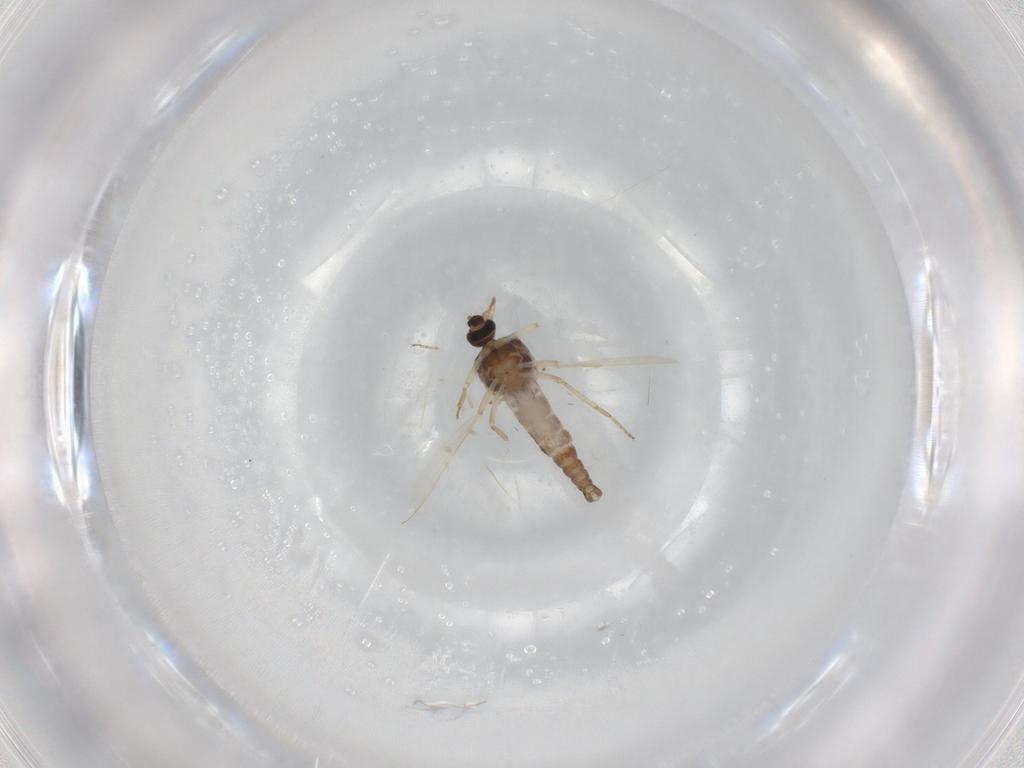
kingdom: Animalia
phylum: Arthropoda
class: Insecta
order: Diptera
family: Ceratopogonidae
